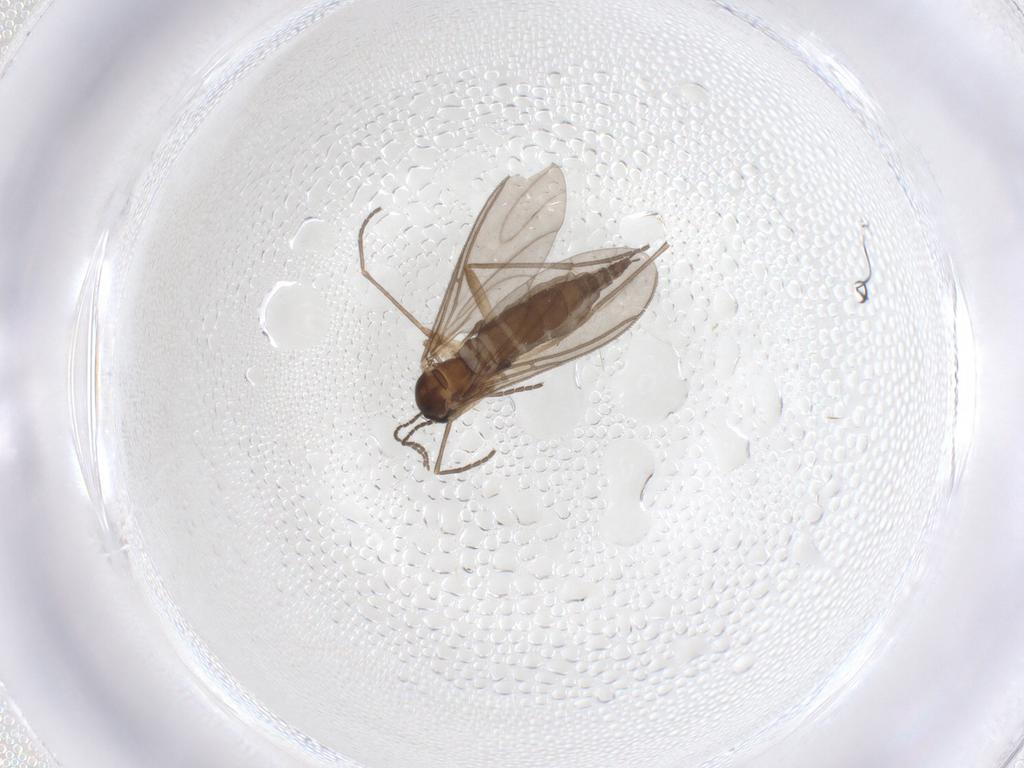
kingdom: Animalia
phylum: Arthropoda
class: Insecta
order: Diptera
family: Sciaridae
